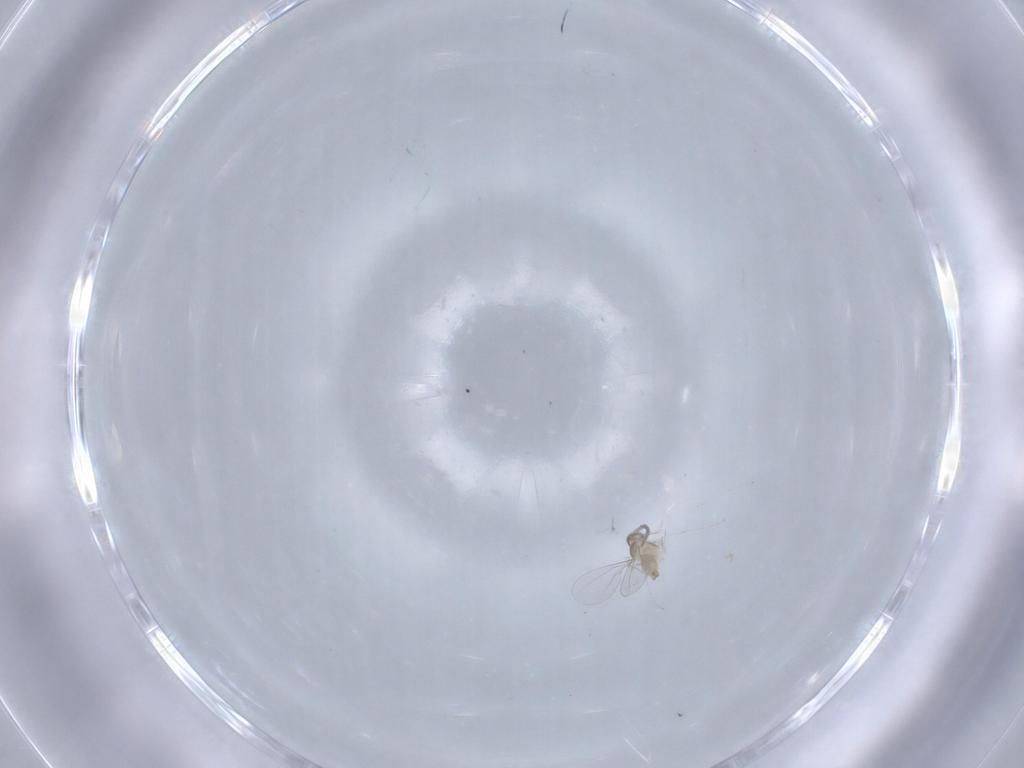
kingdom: Animalia
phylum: Arthropoda
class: Insecta
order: Diptera
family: Cecidomyiidae
